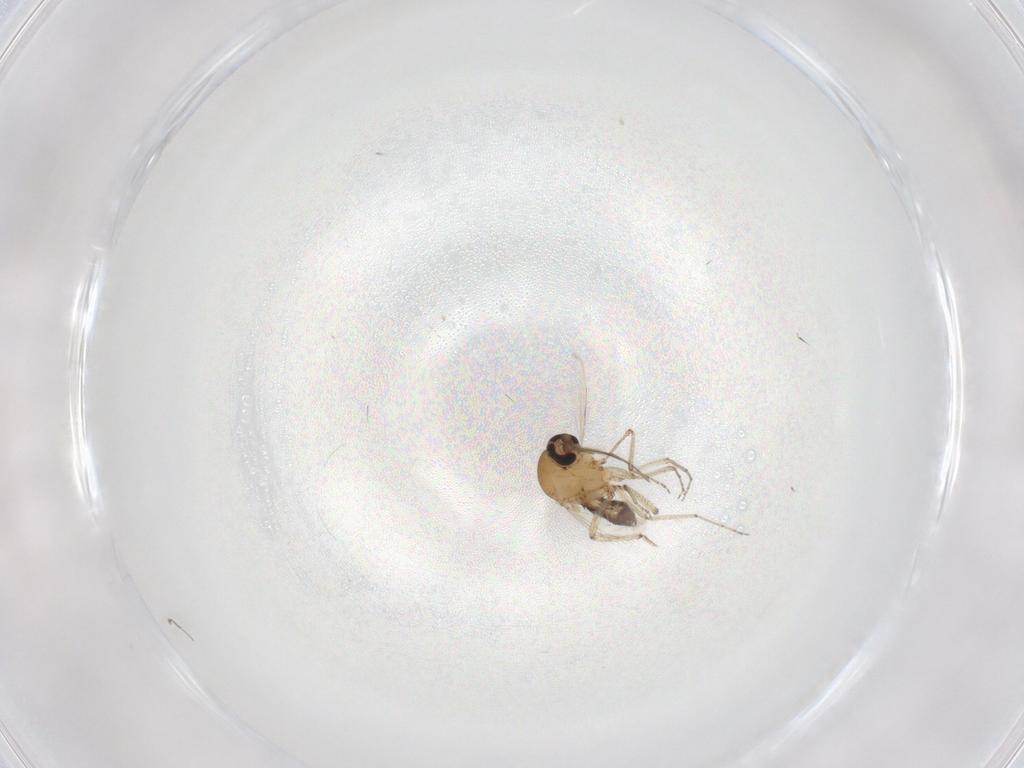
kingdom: Animalia
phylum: Arthropoda
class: Insecta
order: Diptera
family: Ceratopogonidae
